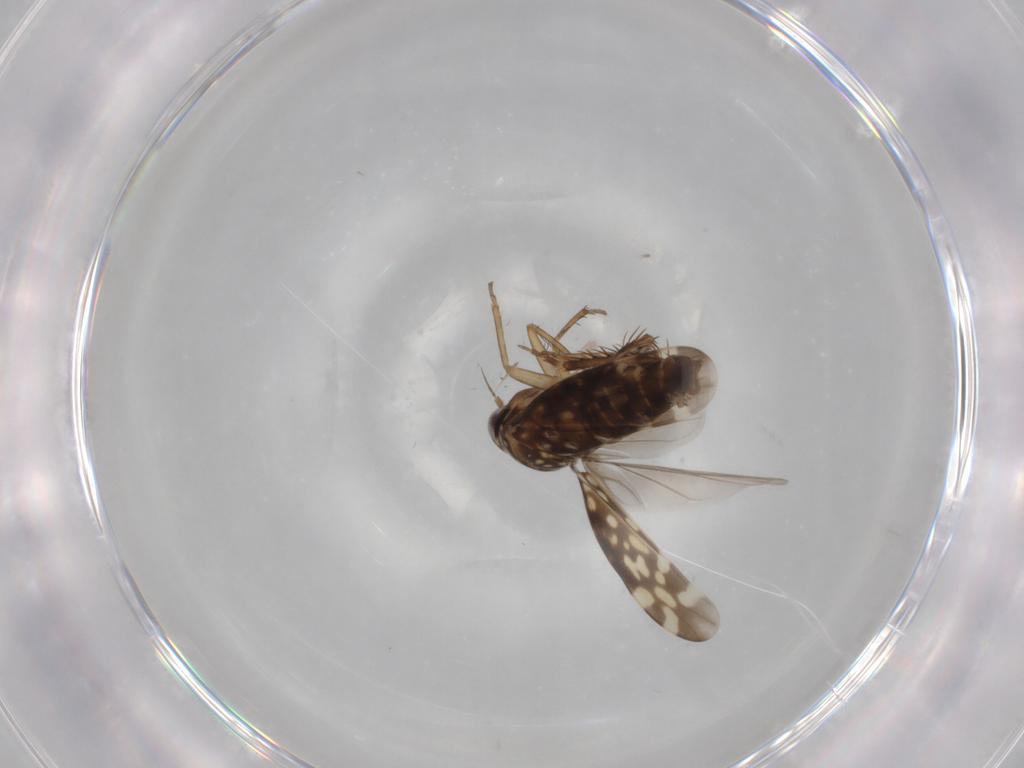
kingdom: Animalia
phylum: Arthropoda
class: Insecta
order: Hemiptera
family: Cicadellidae
